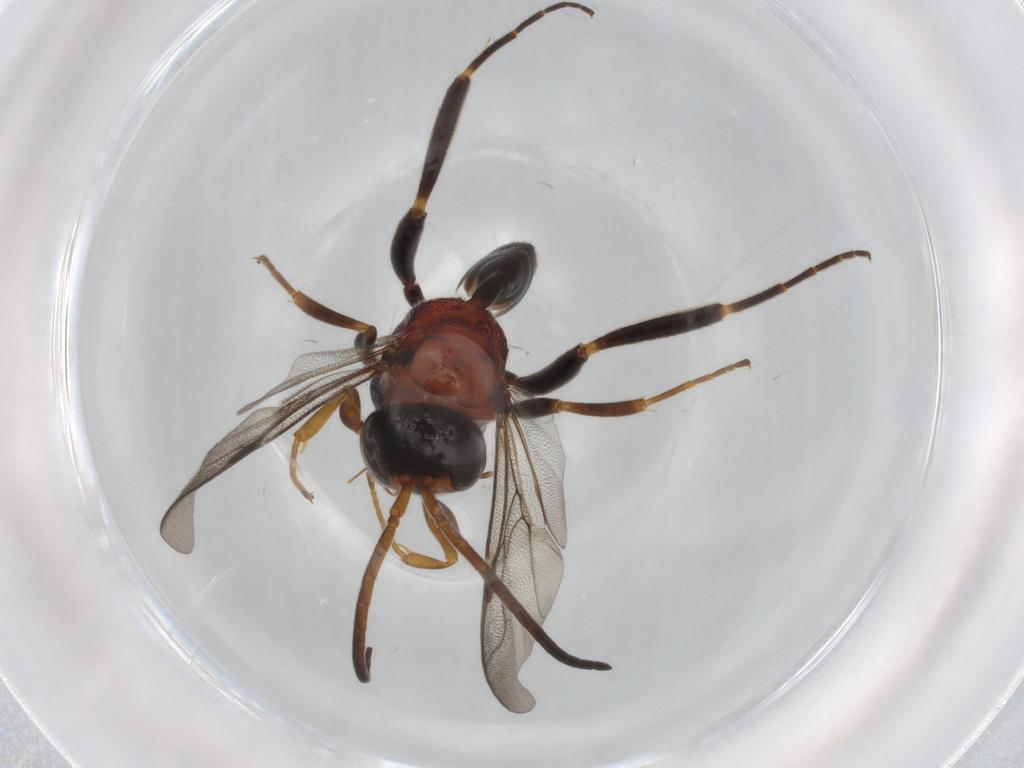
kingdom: Animalia
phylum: Arthropoda
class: Insecta
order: Hymenoptera
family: Evaniidae
